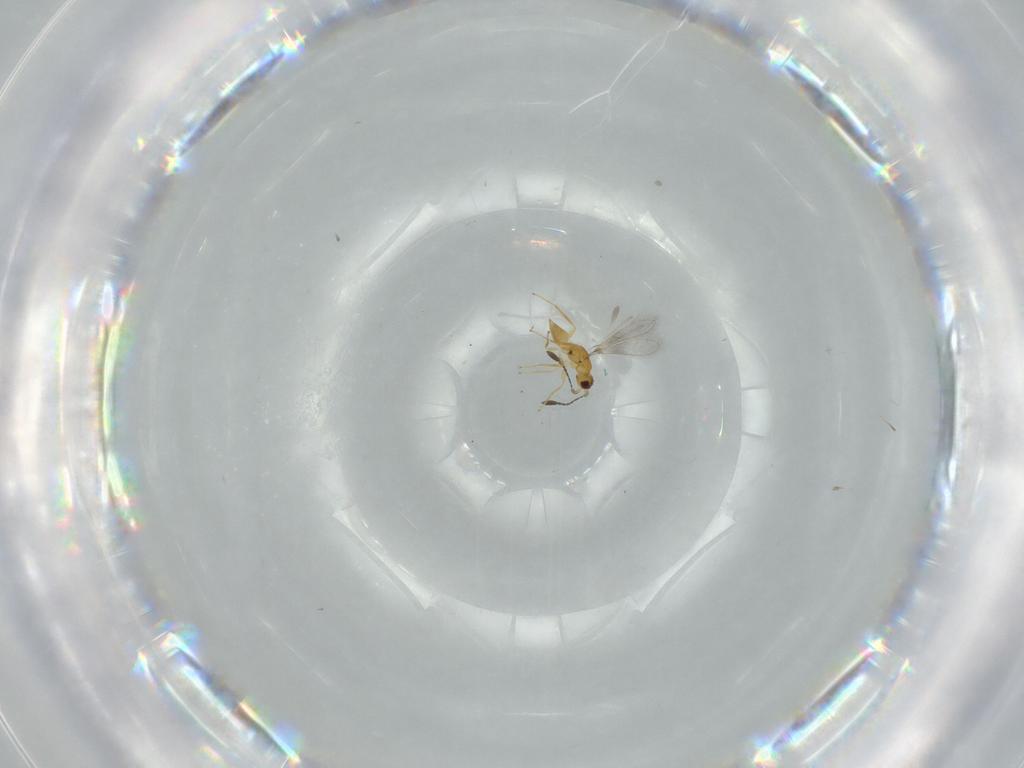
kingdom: Animalia
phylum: Arthropoda
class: Insecta
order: Hymenoptera
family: Mymaridae
